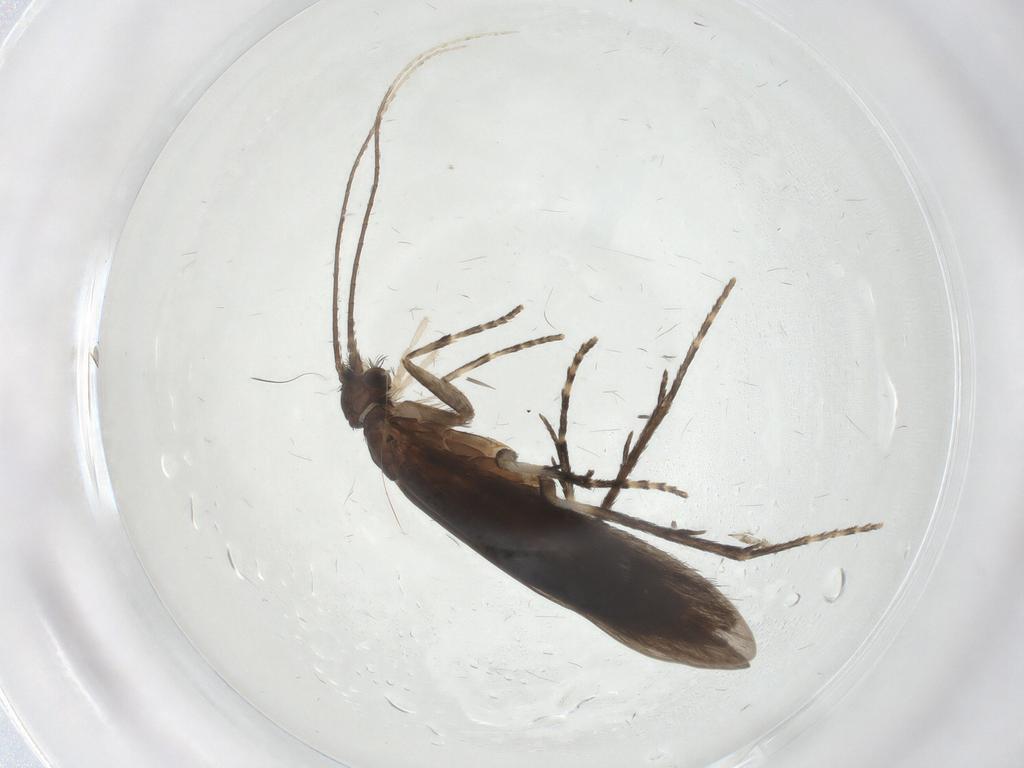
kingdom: Animalia
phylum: Arthropoda
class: Insecta
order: Trichoptera
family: Xiphocentronidae
